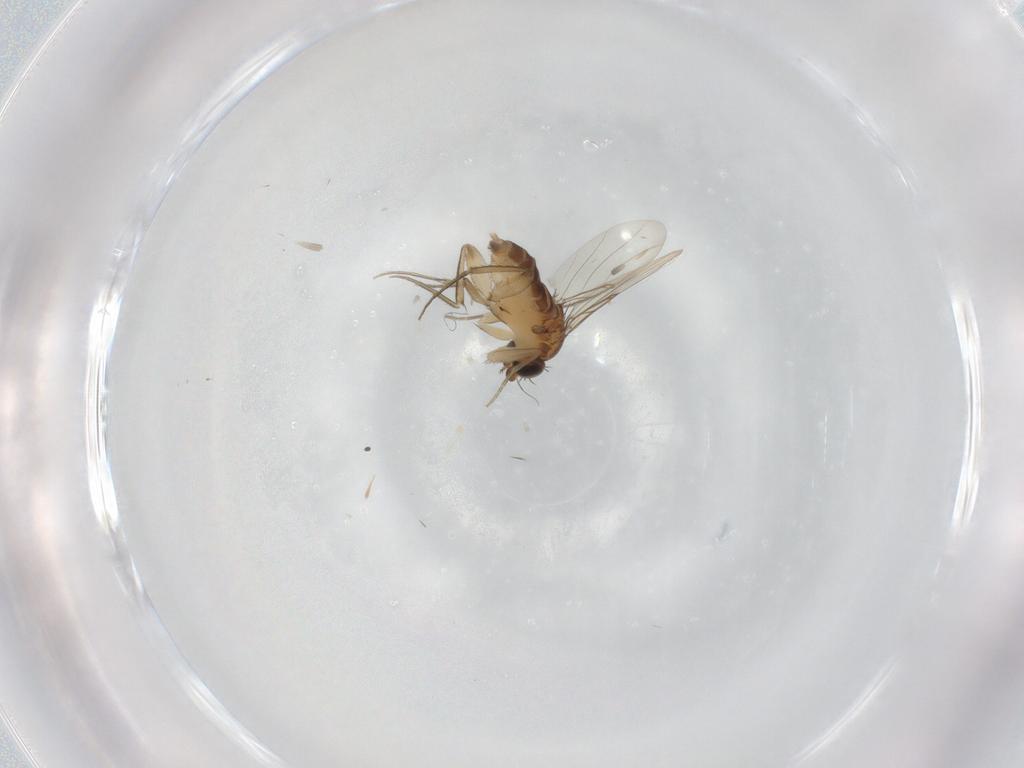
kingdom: Animalia
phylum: Arthropoda
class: Insecta
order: Diptera
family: Phoridae
